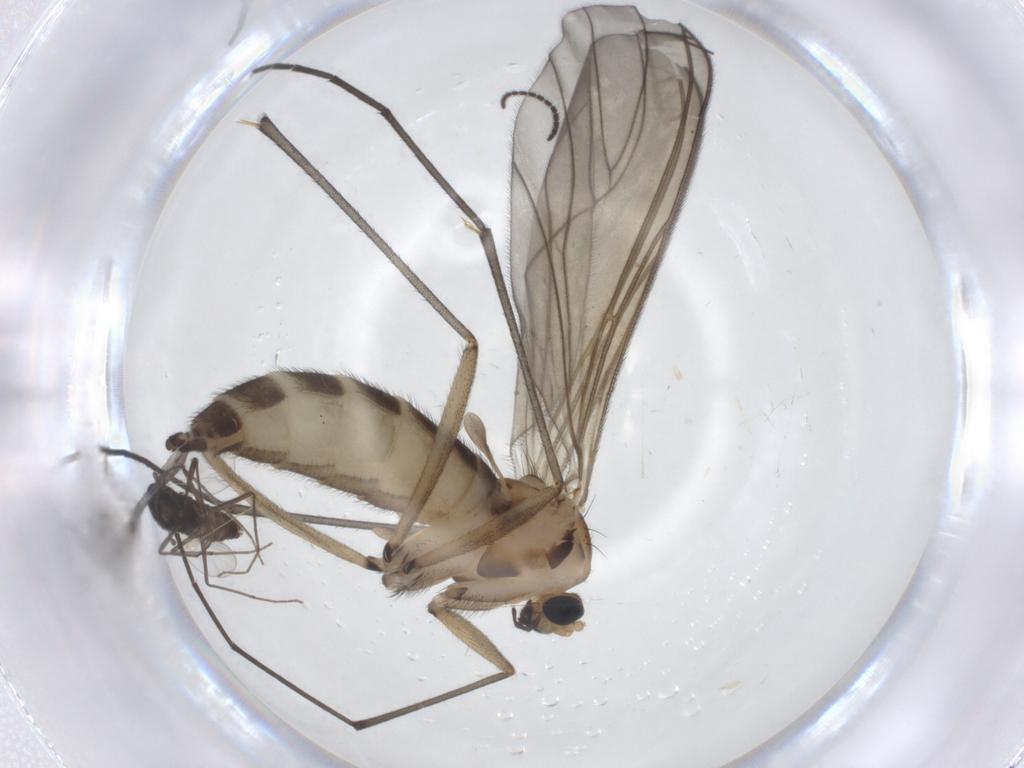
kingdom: Animalia
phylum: Arthropoda
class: Insecta
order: Diptera
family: Sciaridae
